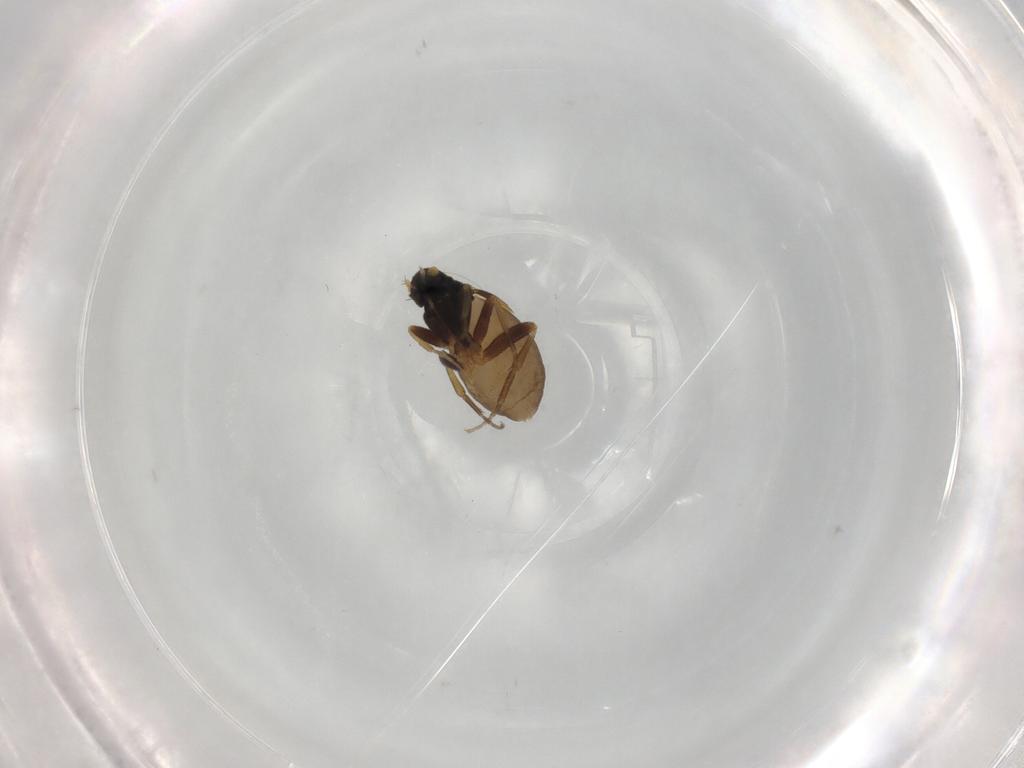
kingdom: Animalia
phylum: Arthropoda
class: Insecta
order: Diptera
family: Phoridae
